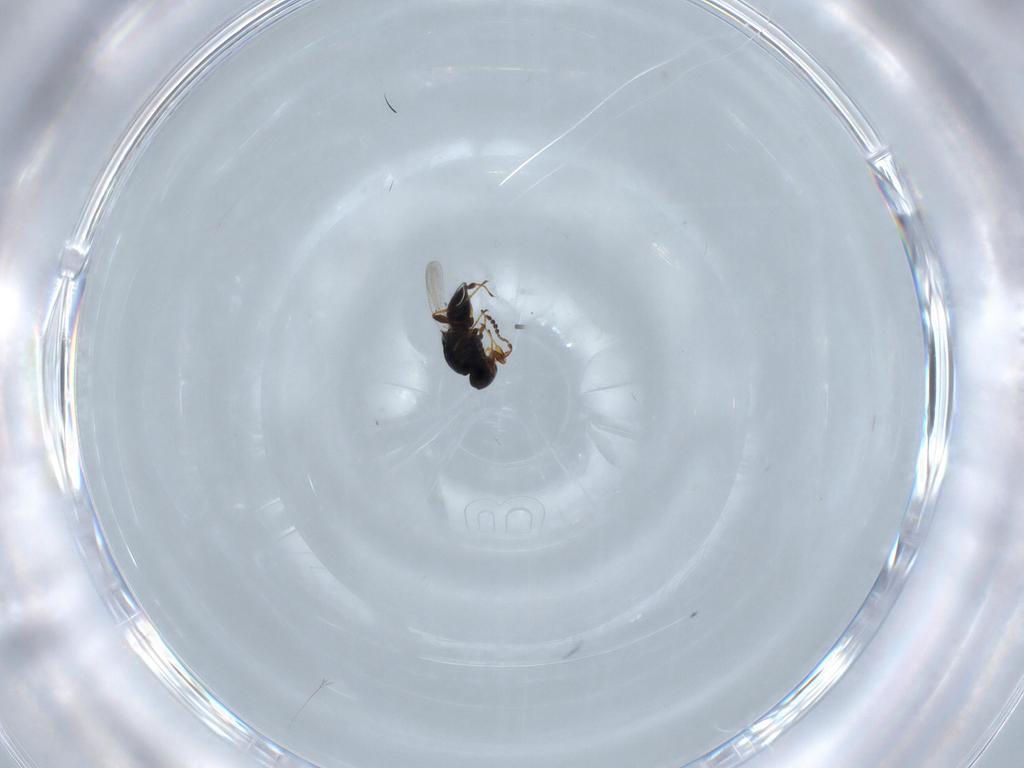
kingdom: Animalia
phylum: Arthropoda
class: Insecta
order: Hymenoptera
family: Platygastridae
